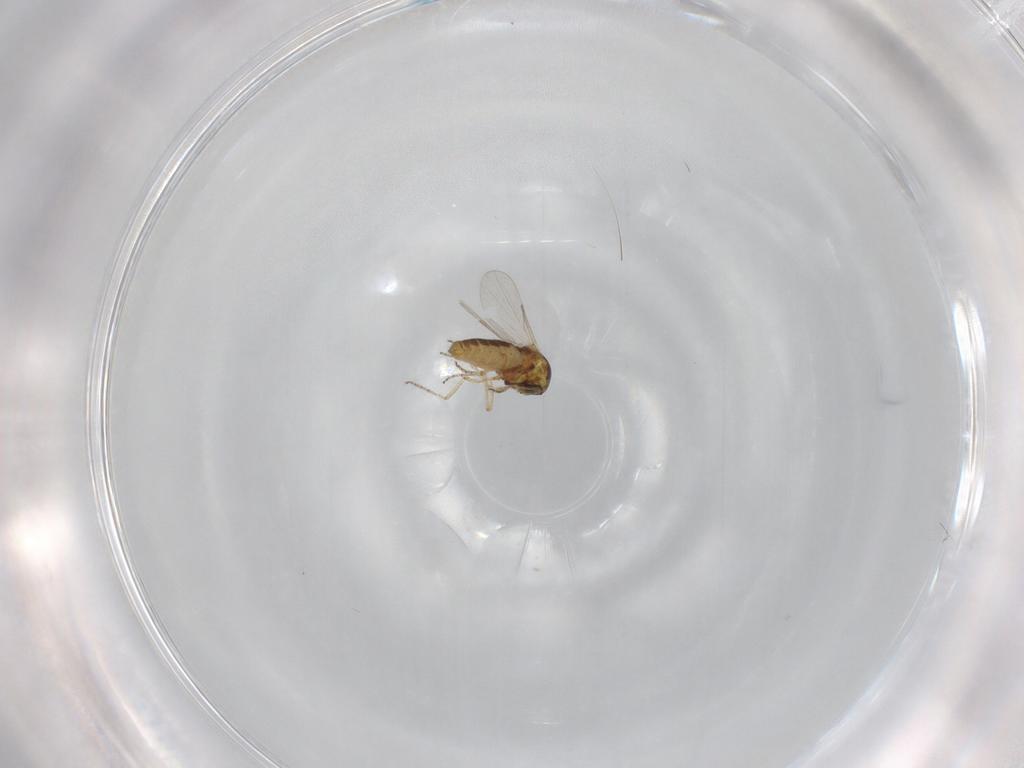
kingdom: Animalia
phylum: Arthropoda
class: Insecta
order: Diptera
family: Ceratopogonidae
